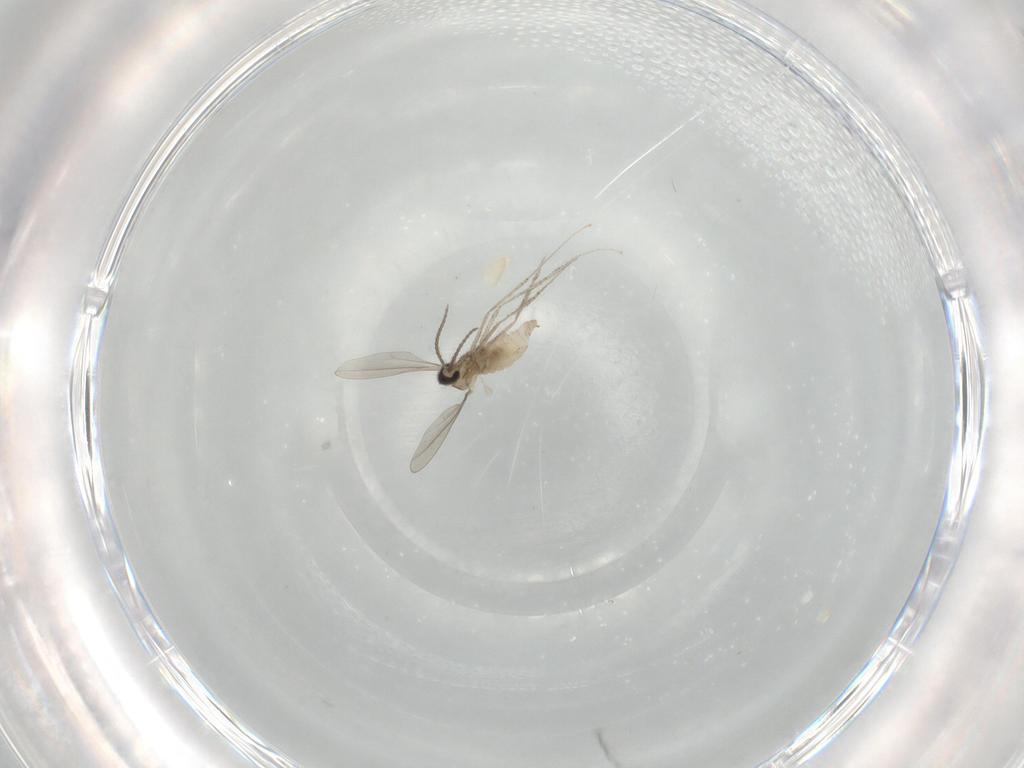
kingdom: Animalia
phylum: Arthropoda
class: Insecta
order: Diptera
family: Cecidomyiidae
